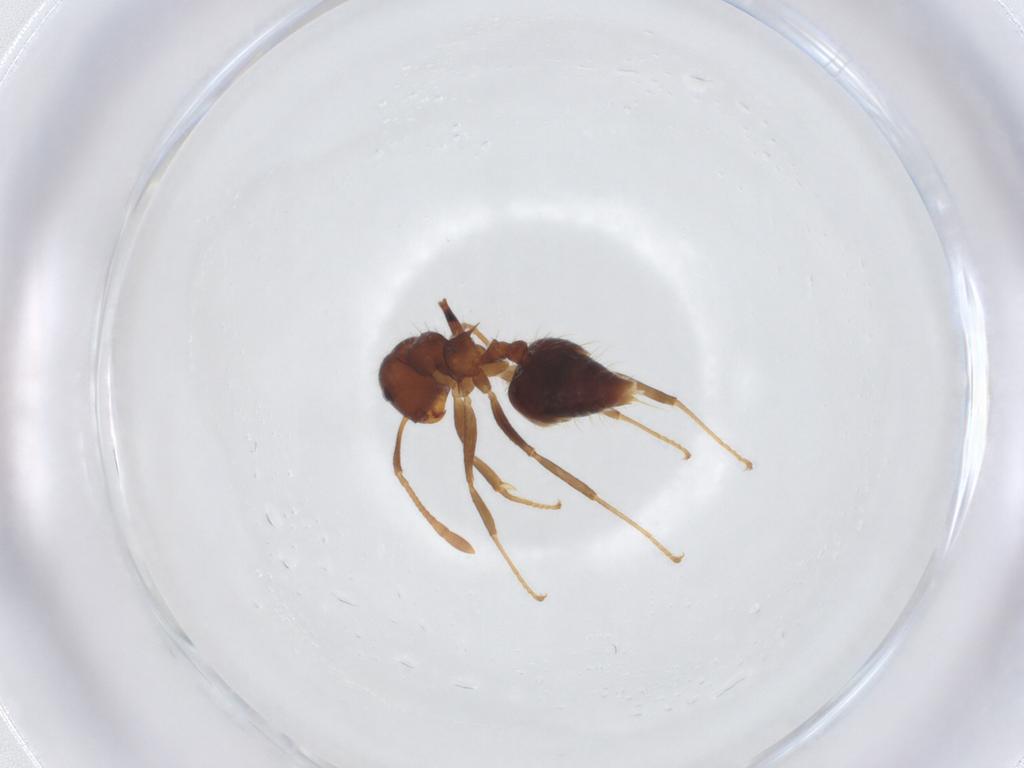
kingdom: Animalia
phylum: Arthropoda
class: Insecta
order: Hymenoptera
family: Formicidae
